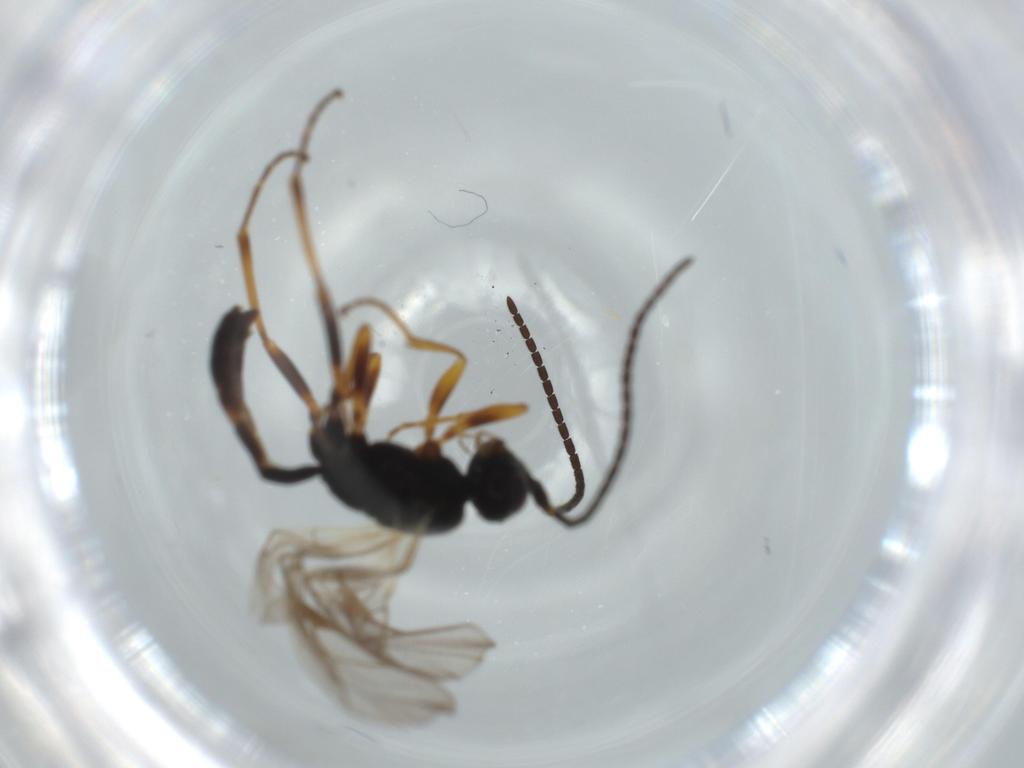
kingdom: Animalia
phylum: Arthropoda
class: Insecta
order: Hymenoptera
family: Ichneumonidae
